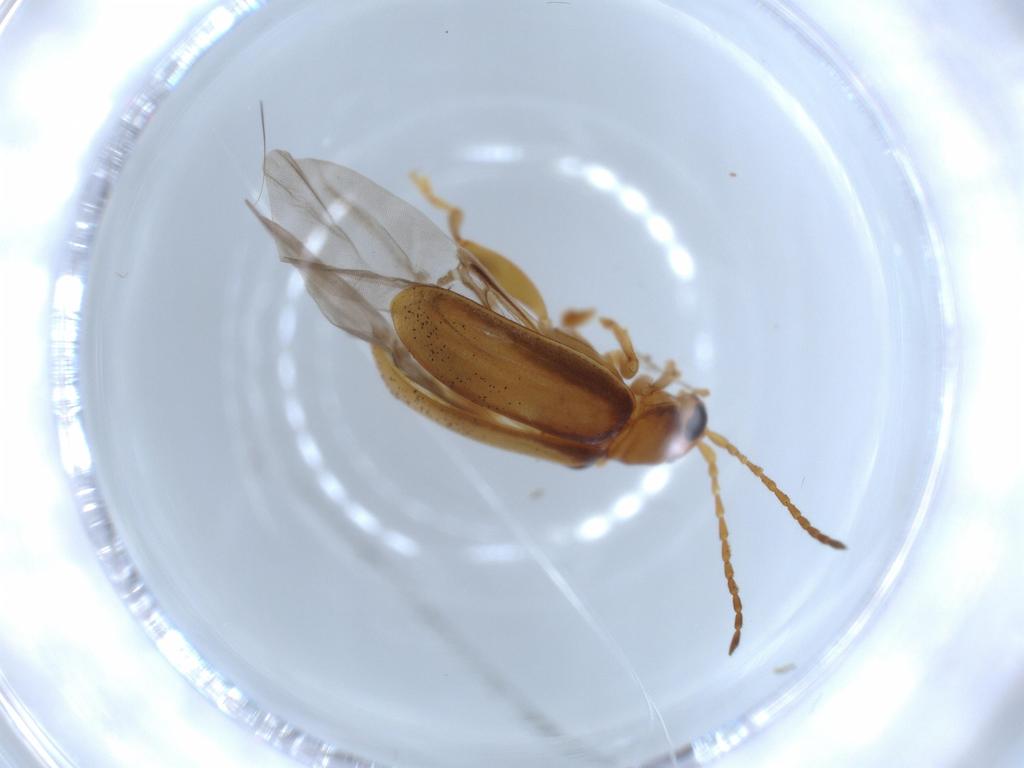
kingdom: Animalia
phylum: Arthropoda
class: Insecta
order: Coleoptera
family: Chrysomelidae
